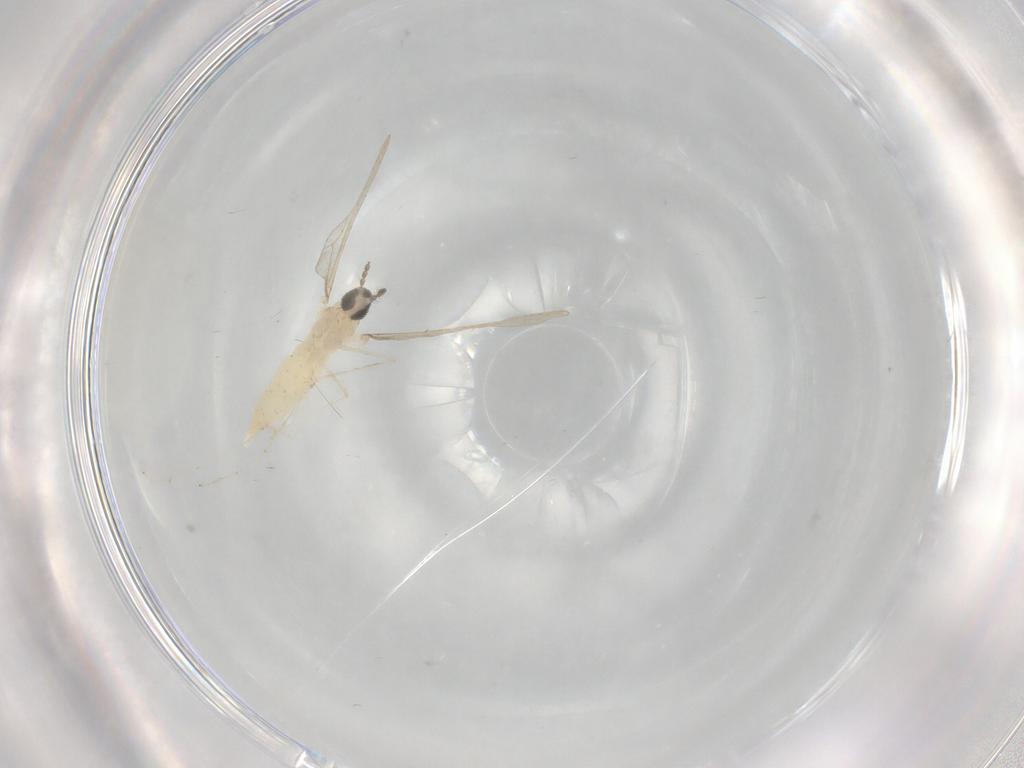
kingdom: Animalia
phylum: Arthropoda
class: Insecta
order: Diptera
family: Cecidomyiidae
